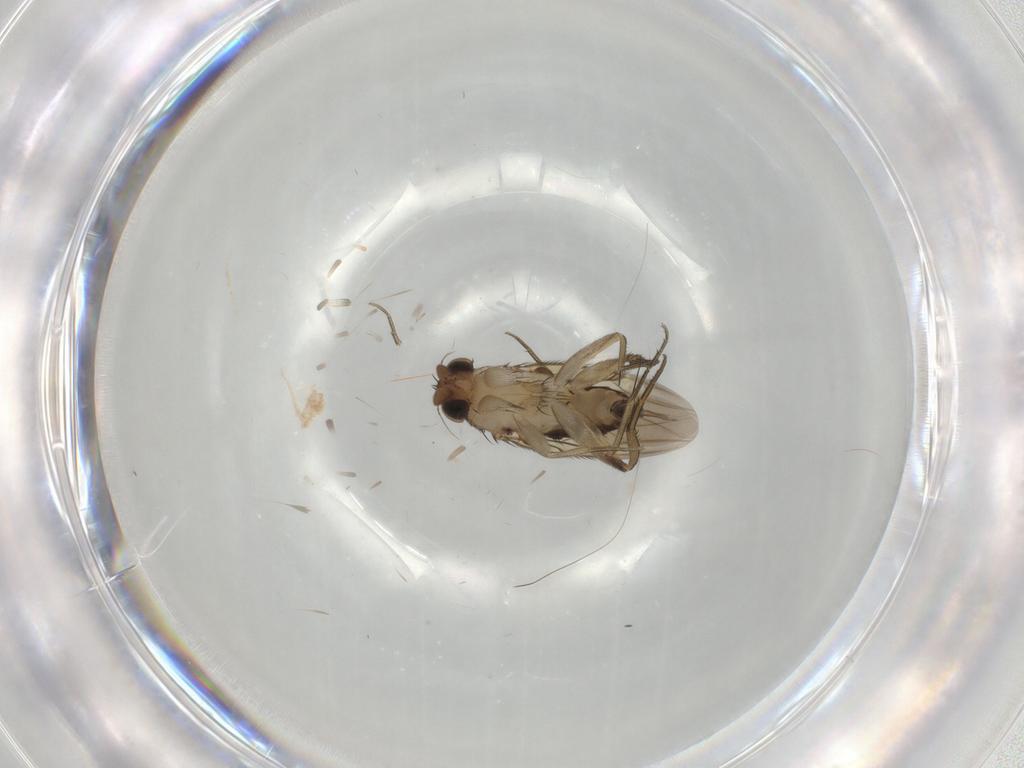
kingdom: Animalia
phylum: Arthropoda
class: Insecta
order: Diptera
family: Phoridae
